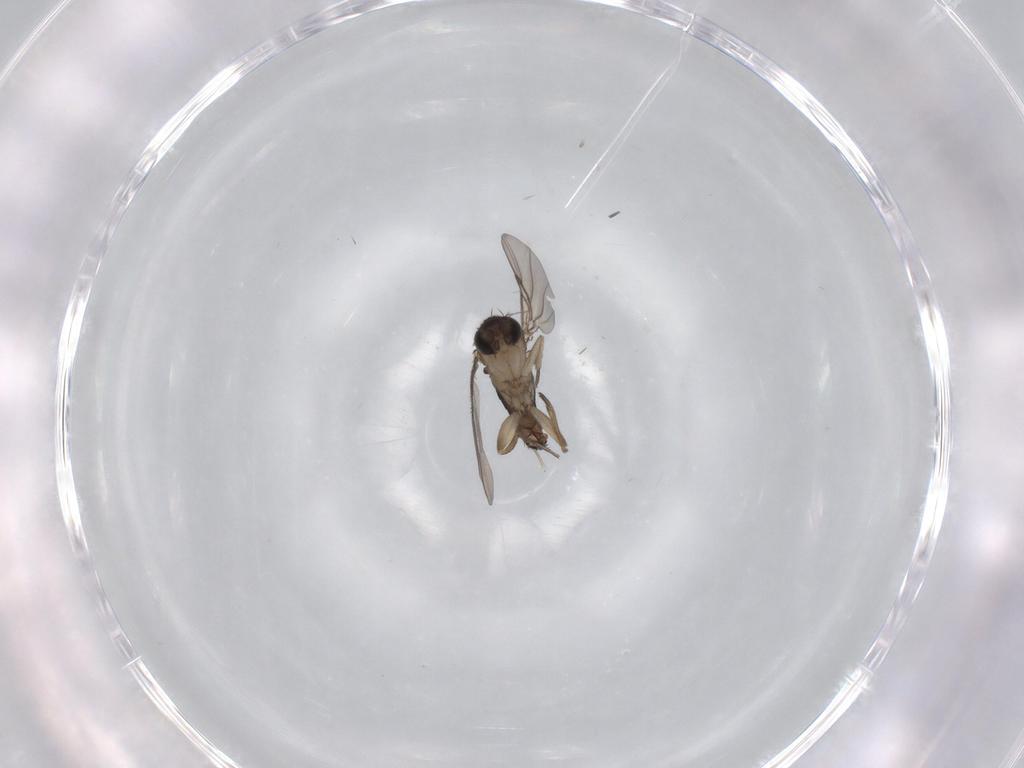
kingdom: Animalia
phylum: Arthropoda
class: Insecta
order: Diptera
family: Phoridae
